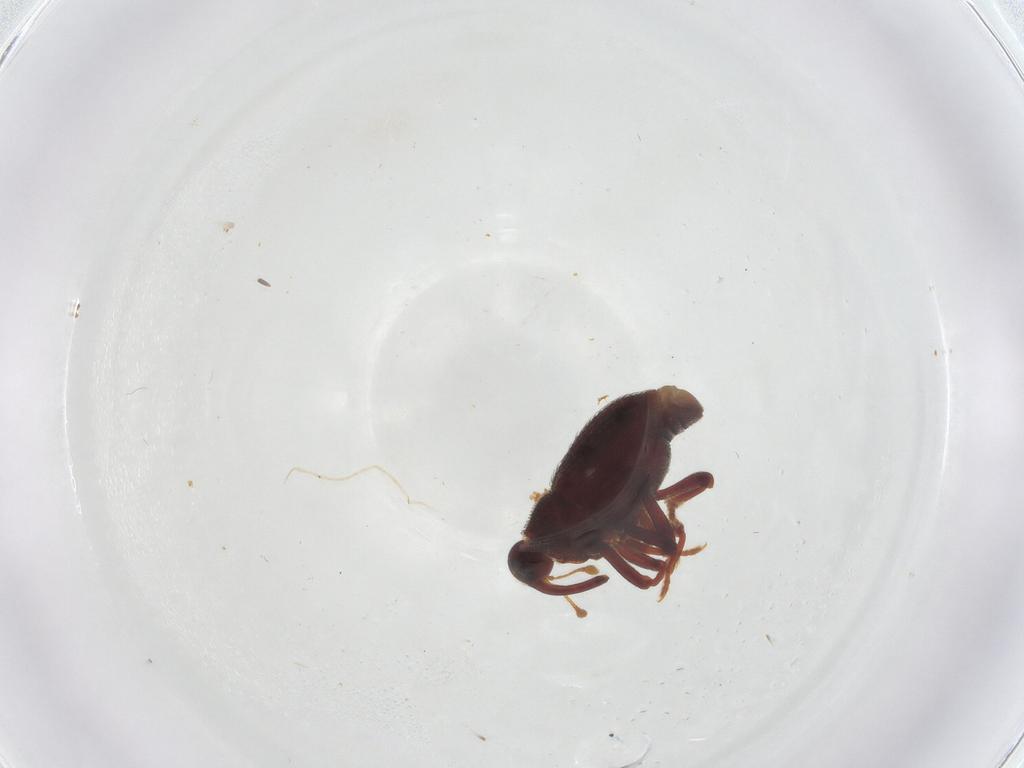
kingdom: Animalia
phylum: Arthropoda
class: Insecta
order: Coleoptera
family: Curculionidae
